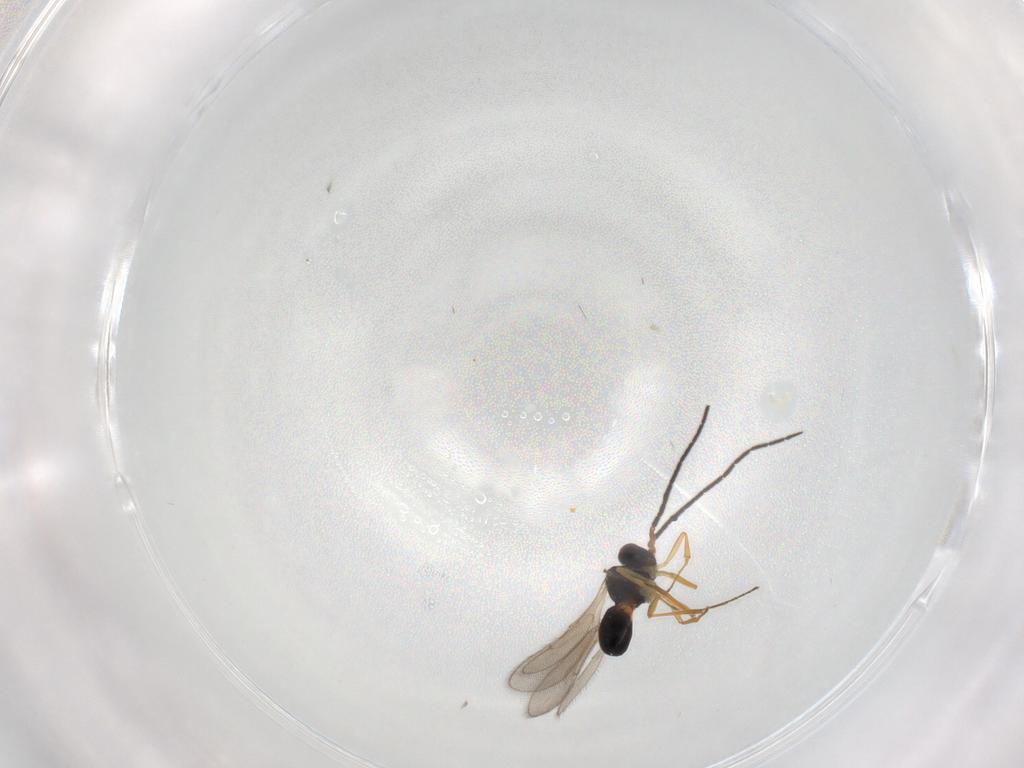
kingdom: Animalia
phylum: Arthropoda
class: Insecta
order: Hymenoptera
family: Scelionidae
